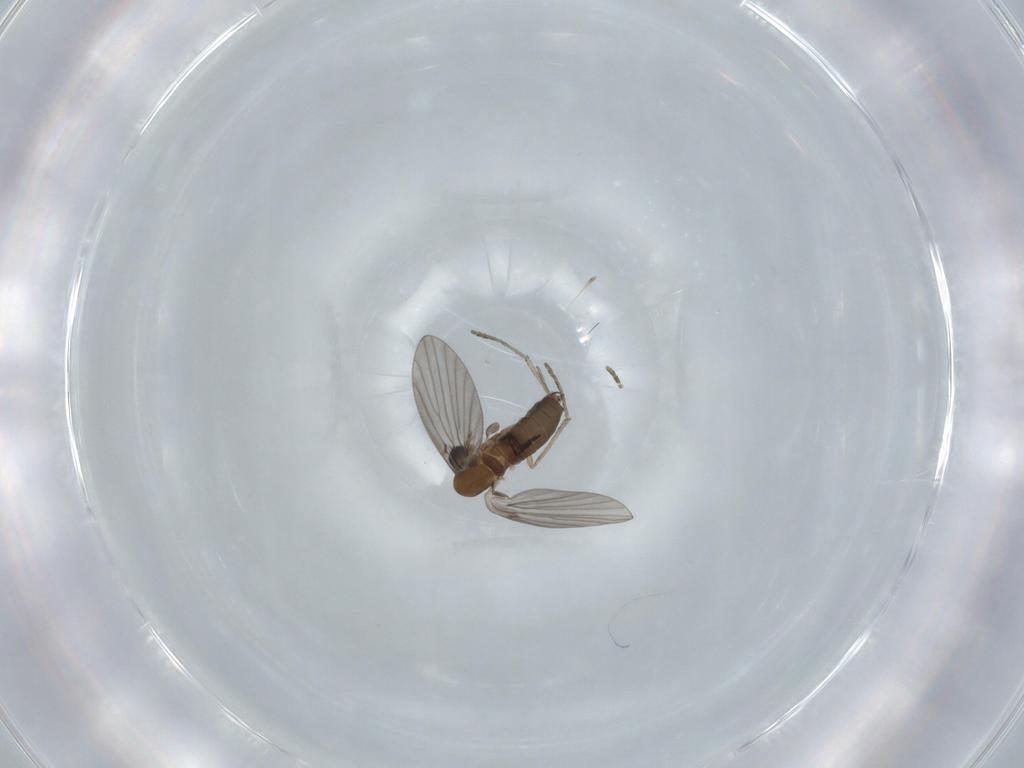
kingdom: Animalia
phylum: Arthropoda
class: Insecta
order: Diptera
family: Psychodidae
